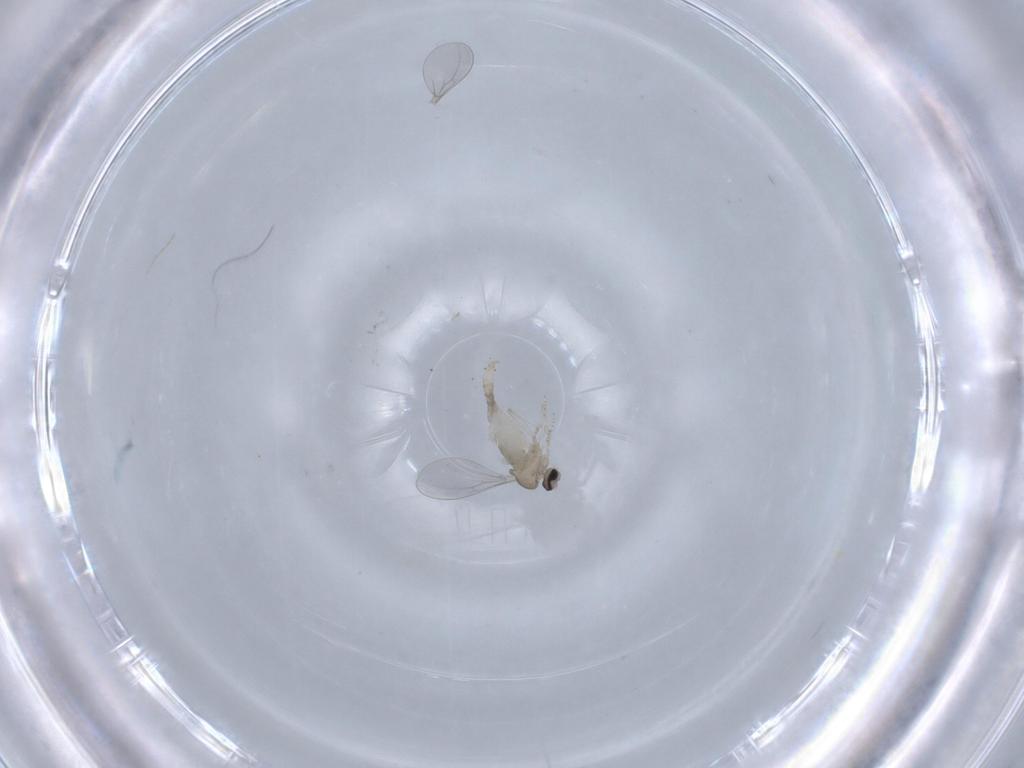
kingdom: Animalia
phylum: Arthropoda
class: Insecta
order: Diptera
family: Cecidomyiidae
